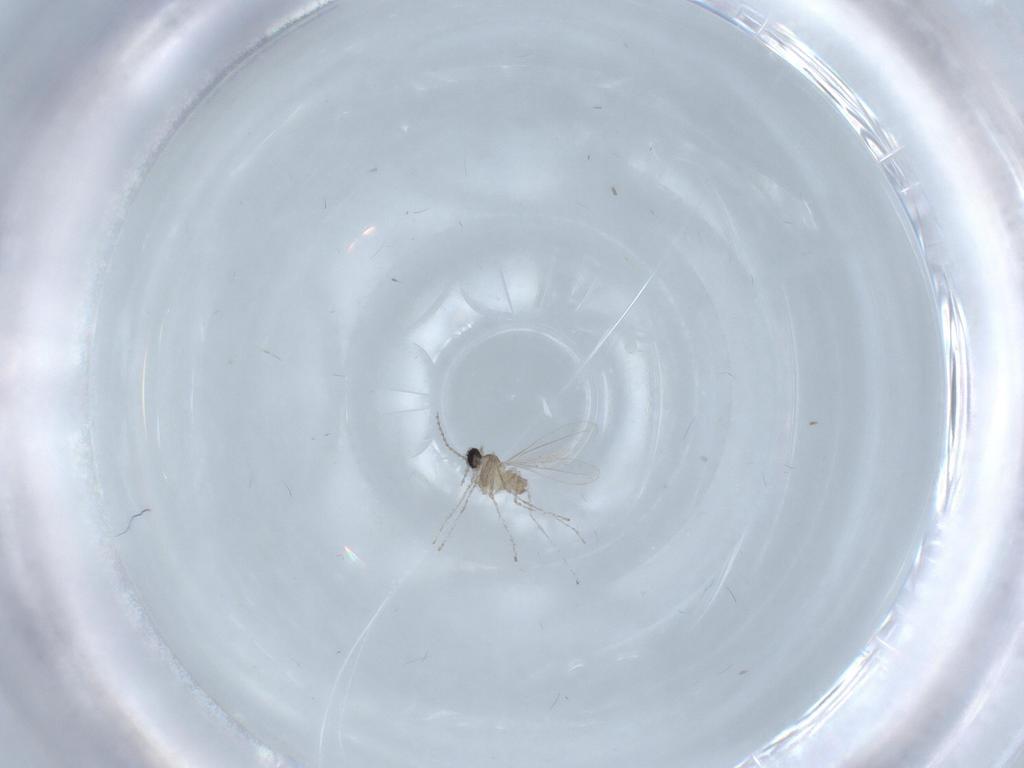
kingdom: Animalia
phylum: Arthropoda
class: Insecta
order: Diptera
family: Cecidomyiidae
